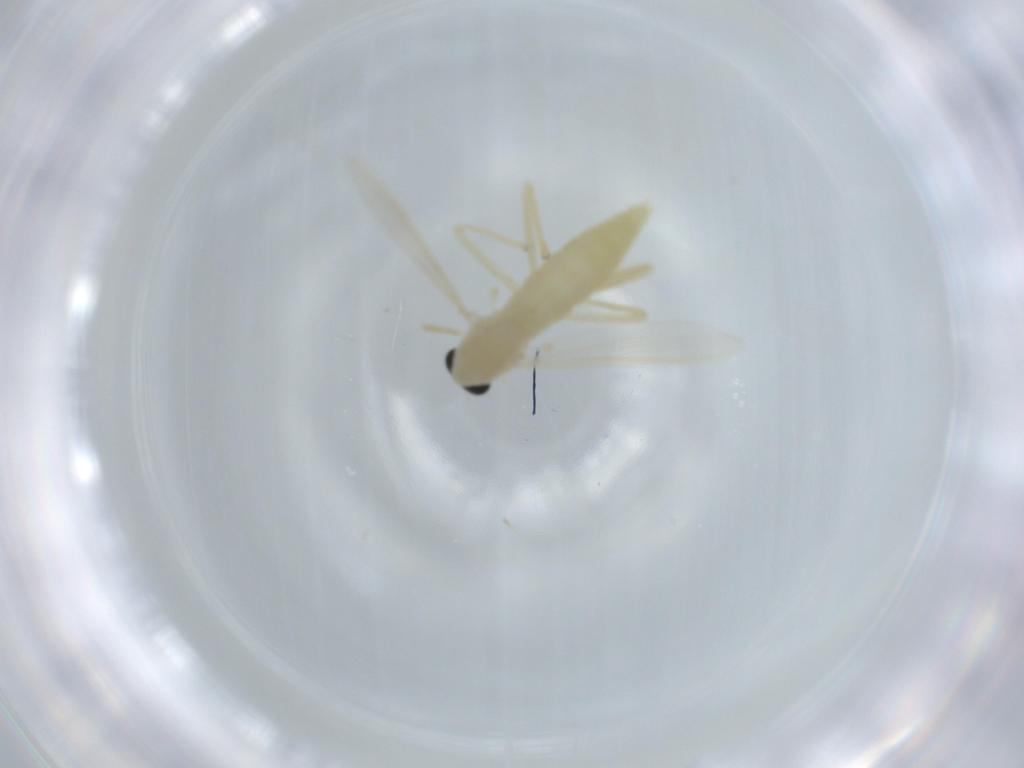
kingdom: Animalia
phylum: Arthropoda
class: Insecta
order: Diptera
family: Chironomidae
